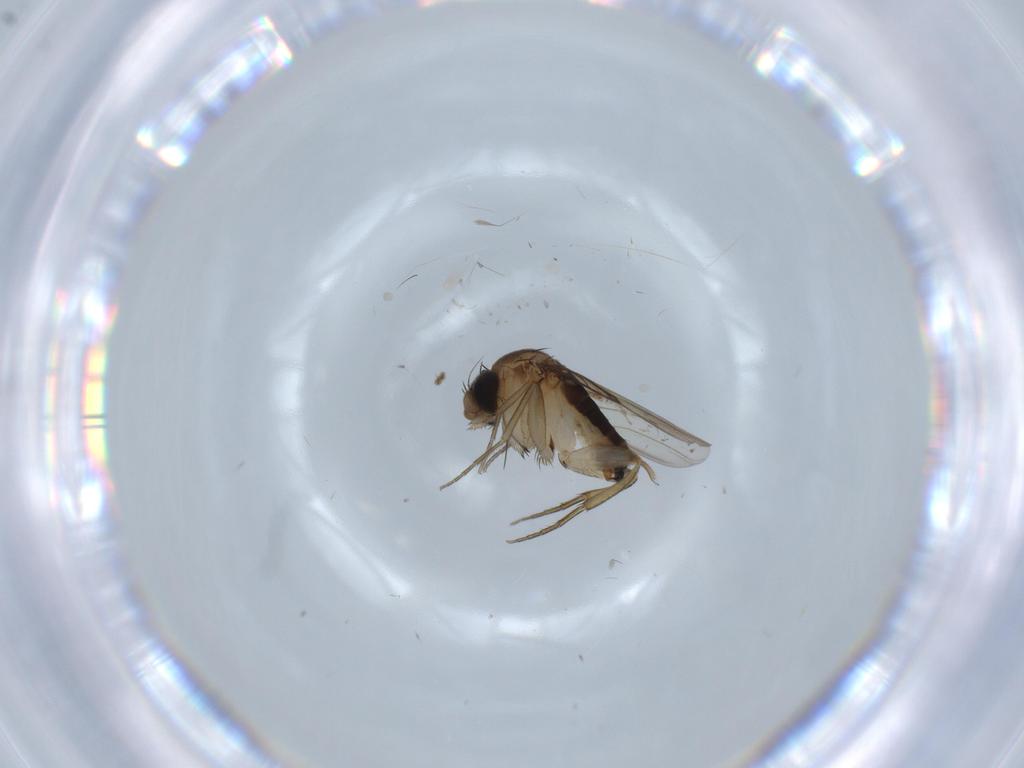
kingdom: Animalia
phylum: Arthropoda
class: Insecta
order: Diptera
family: Phoridae
